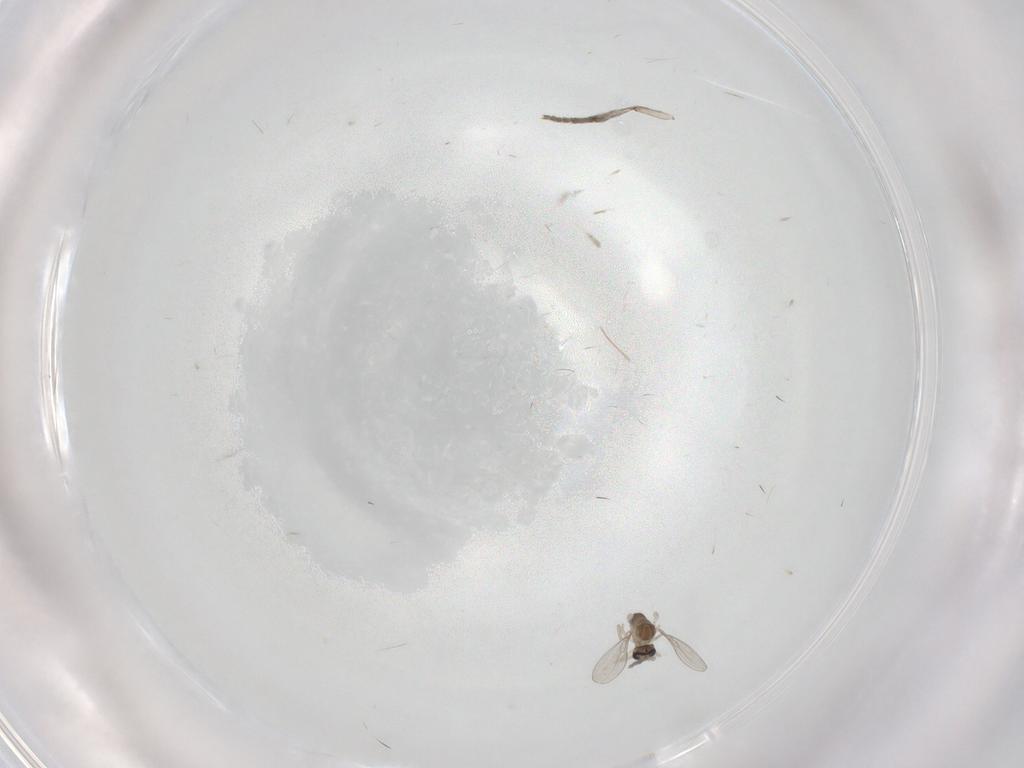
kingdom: Animalia
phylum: Arthropoda
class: Insecta
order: Diptera
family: Cecidomyiidae
